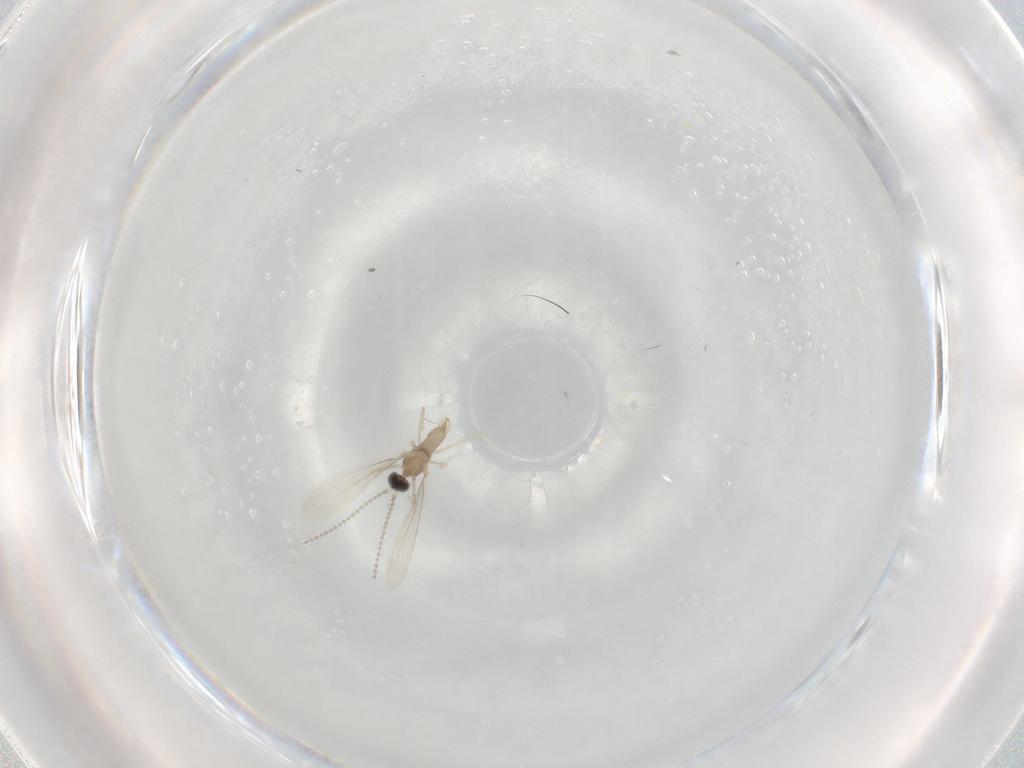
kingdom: Animalia
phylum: Arthropoda
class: Insecta
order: Diptera
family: Cecidomyiidae
